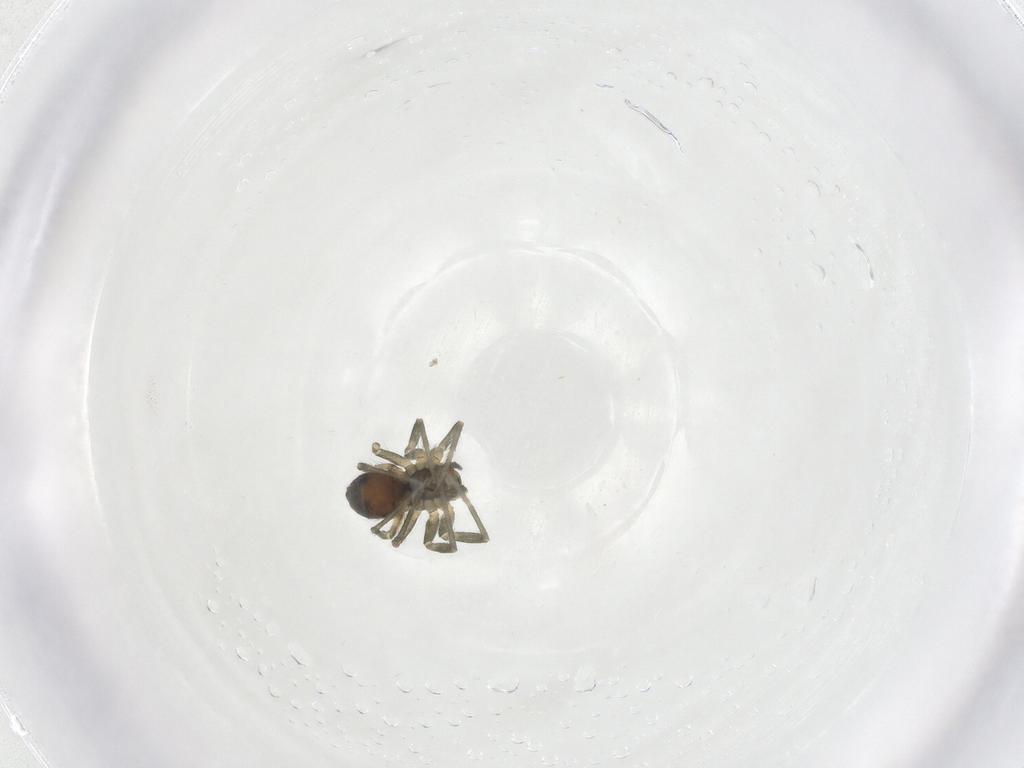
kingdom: Animalia
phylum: Arthropoda
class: Arachnida
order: Araneae
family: Linyphiidae
